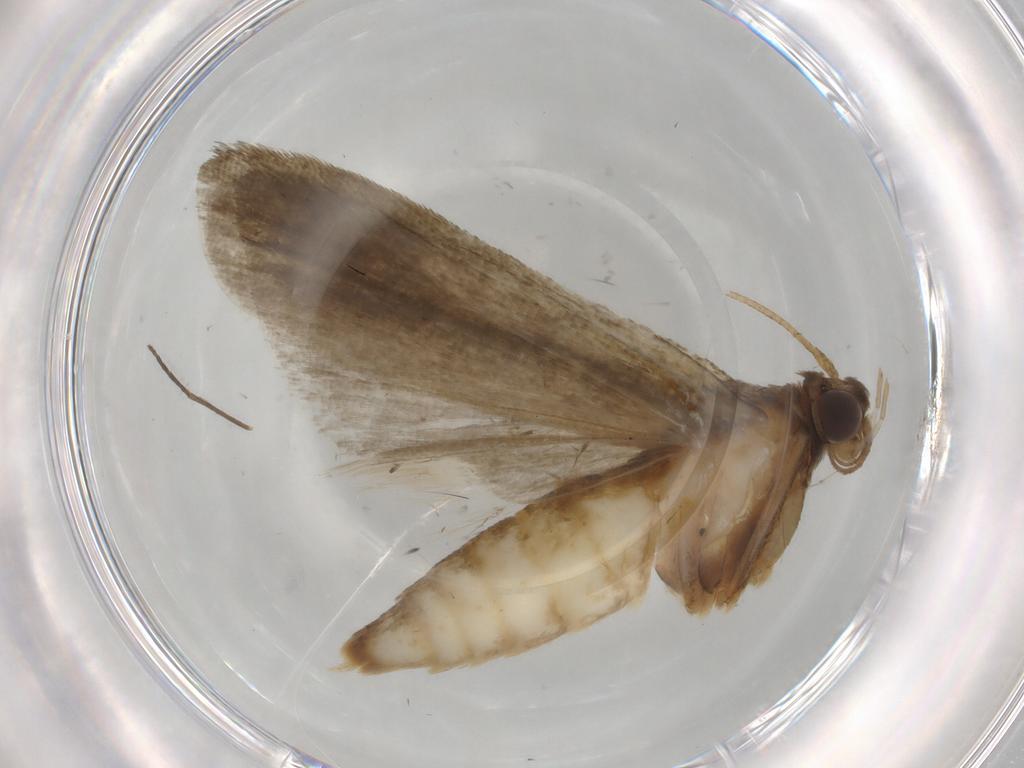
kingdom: Animalia
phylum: Arthropoda
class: Insecta
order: Lepidoptera
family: Noctuidae
